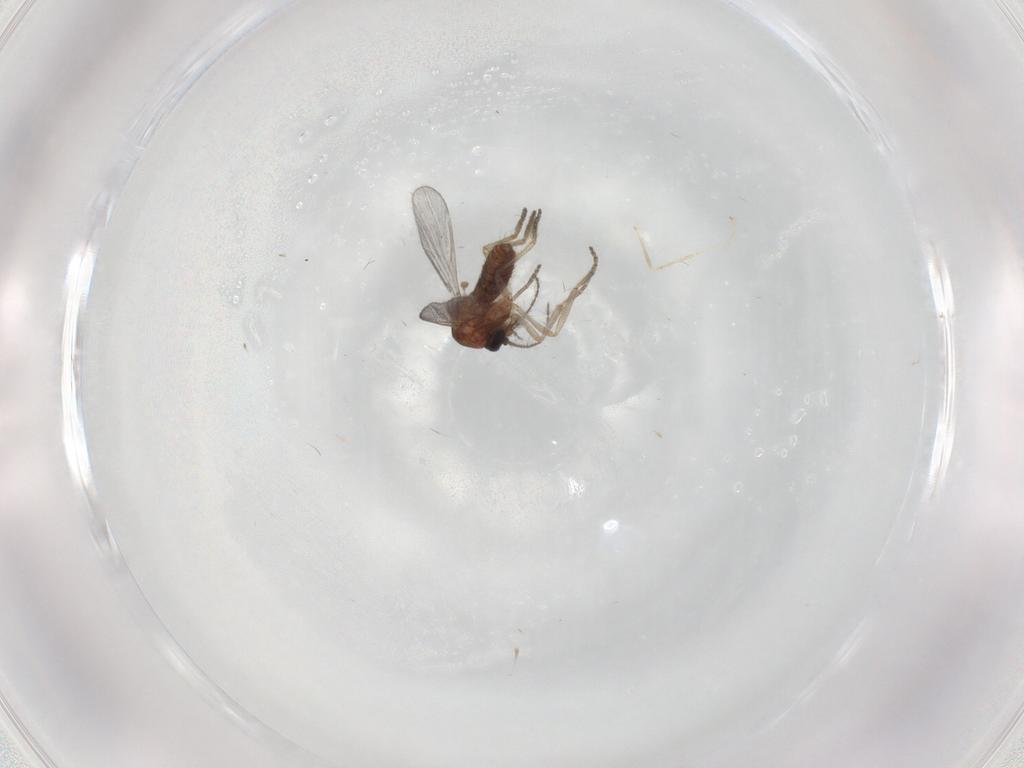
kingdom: Animalia
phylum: Arthropoda
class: Insecta
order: Diptera
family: Ceratopogonidae
